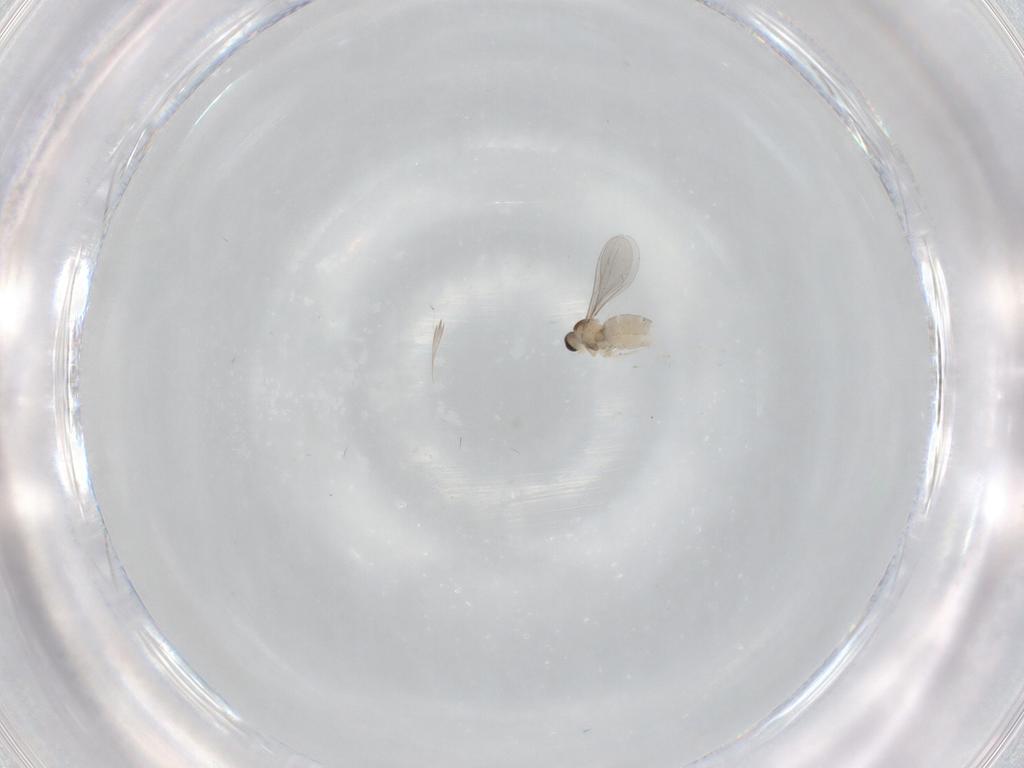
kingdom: Animalia
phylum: Arthropoda
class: Insecta
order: Diptera
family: Cecidomyiidae
